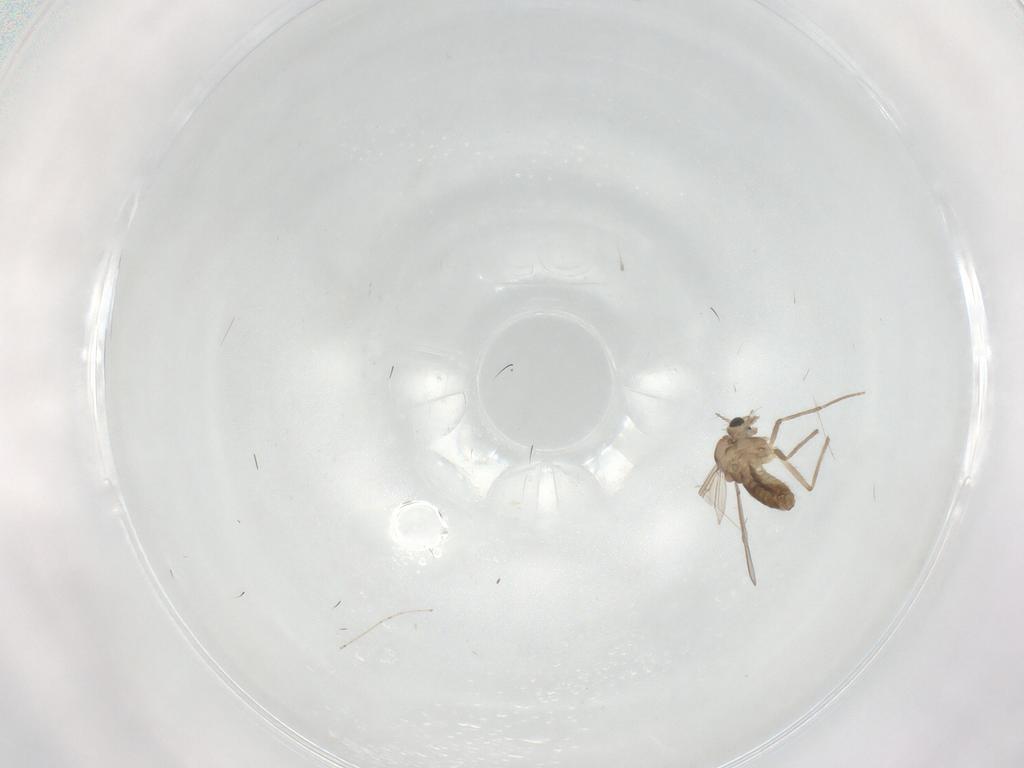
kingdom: Animalia
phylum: Arthropoda
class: Insecta
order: Diptera
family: Chironomidae
